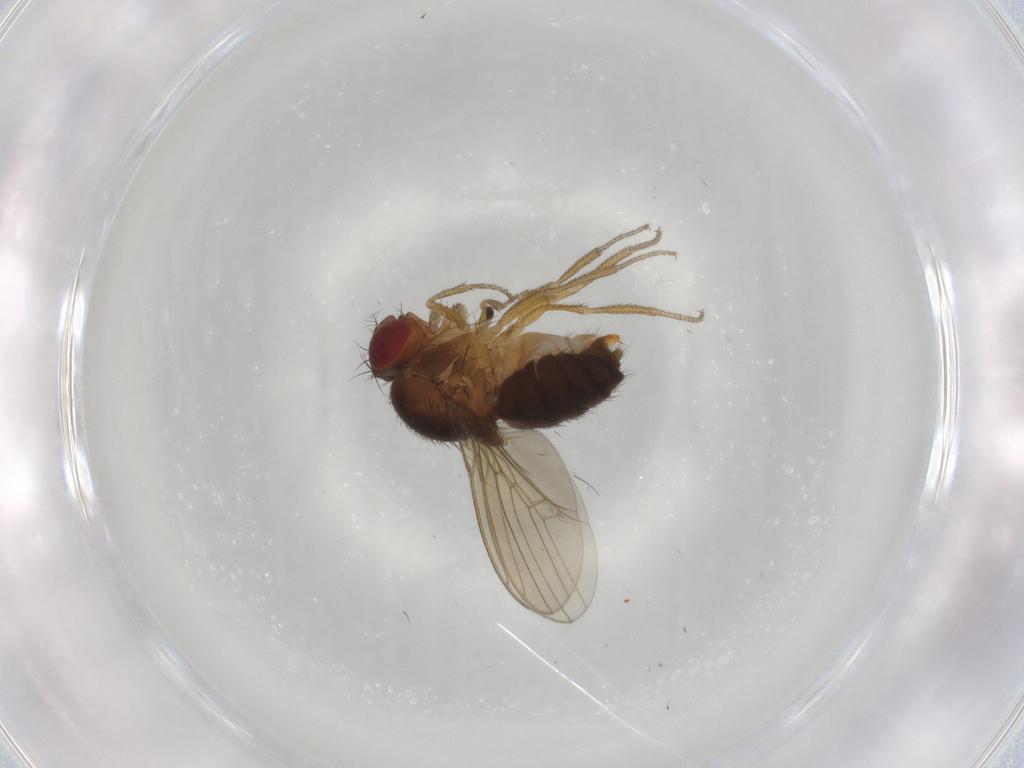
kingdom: Animalia
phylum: Arthropoda
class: Insecta
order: Diptera
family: Drosophilidae
